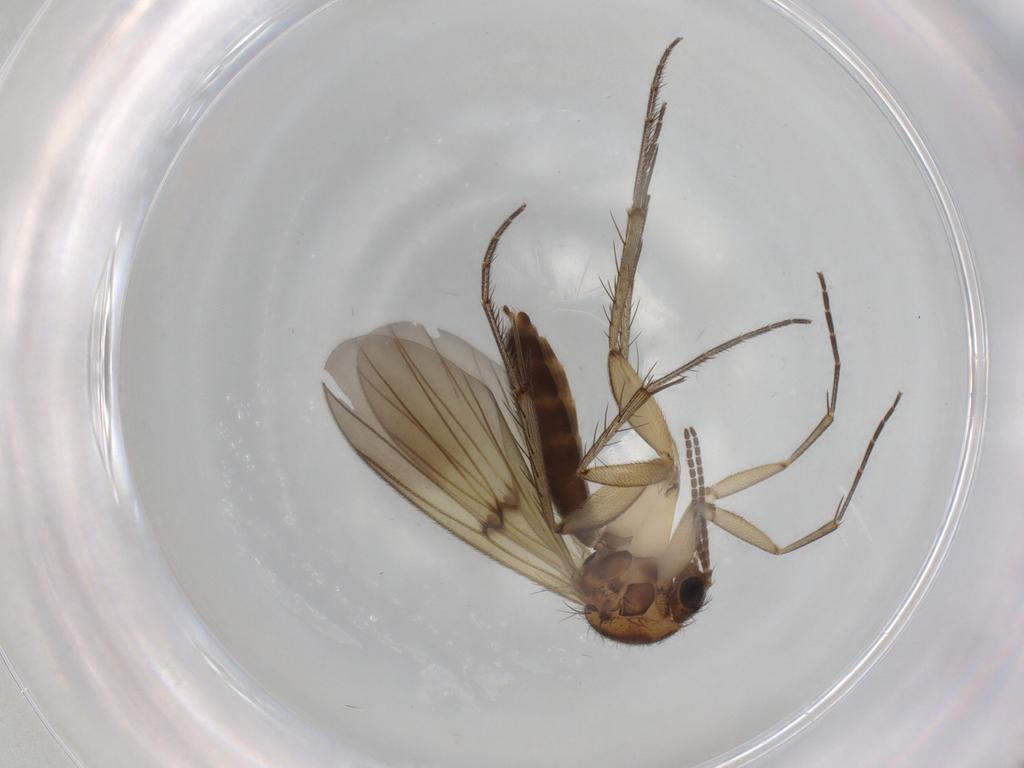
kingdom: Animalia
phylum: Arthropoda
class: Insecta
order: Diptera
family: Mycetophilidae
